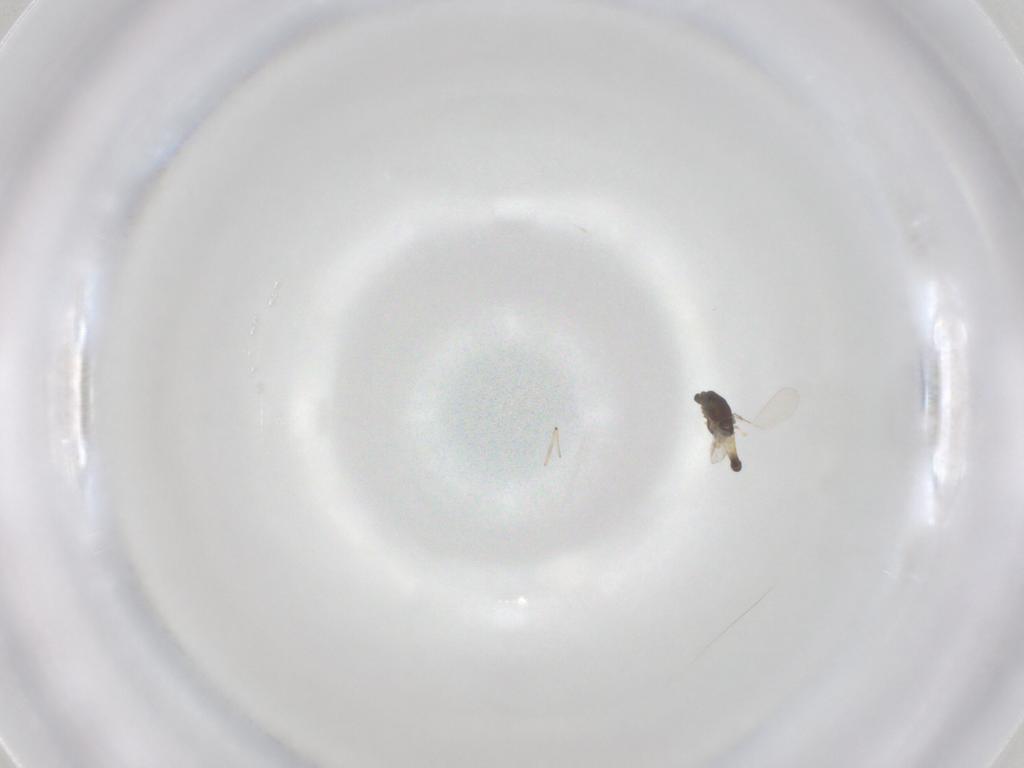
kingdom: Animalia
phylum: Arthropoda
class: Insecta
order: Diptera
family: Chironomidae
